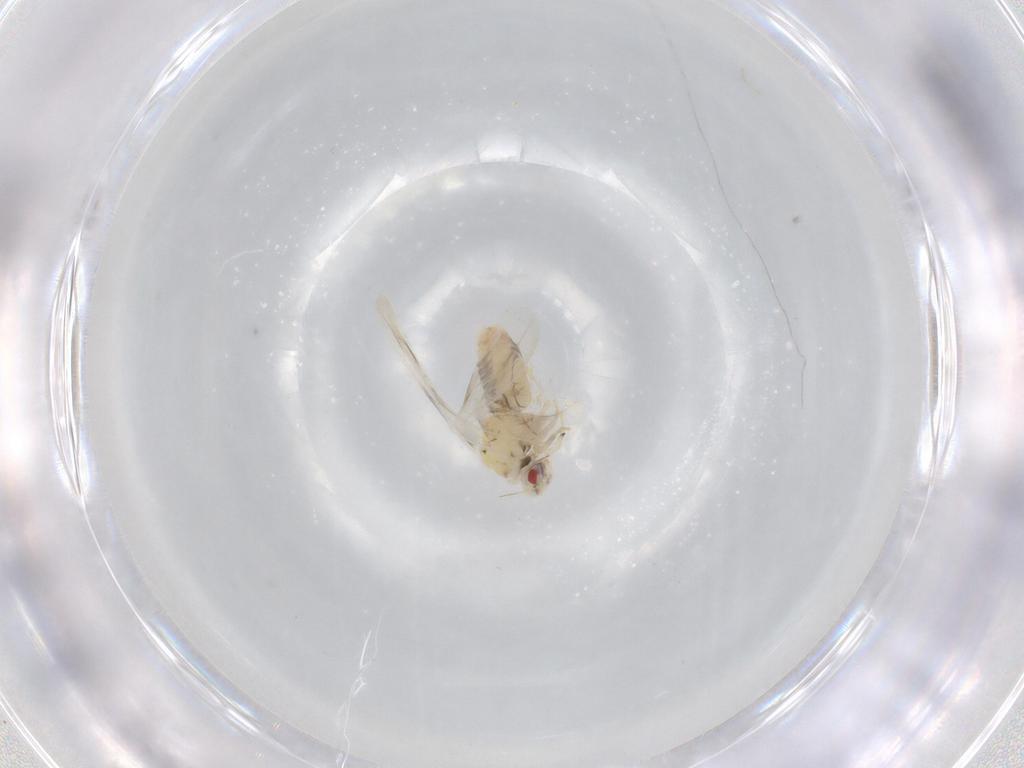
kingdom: Animalia
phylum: Arthropoda
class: Insecta
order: Hemiptera
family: Aleyrodidae
